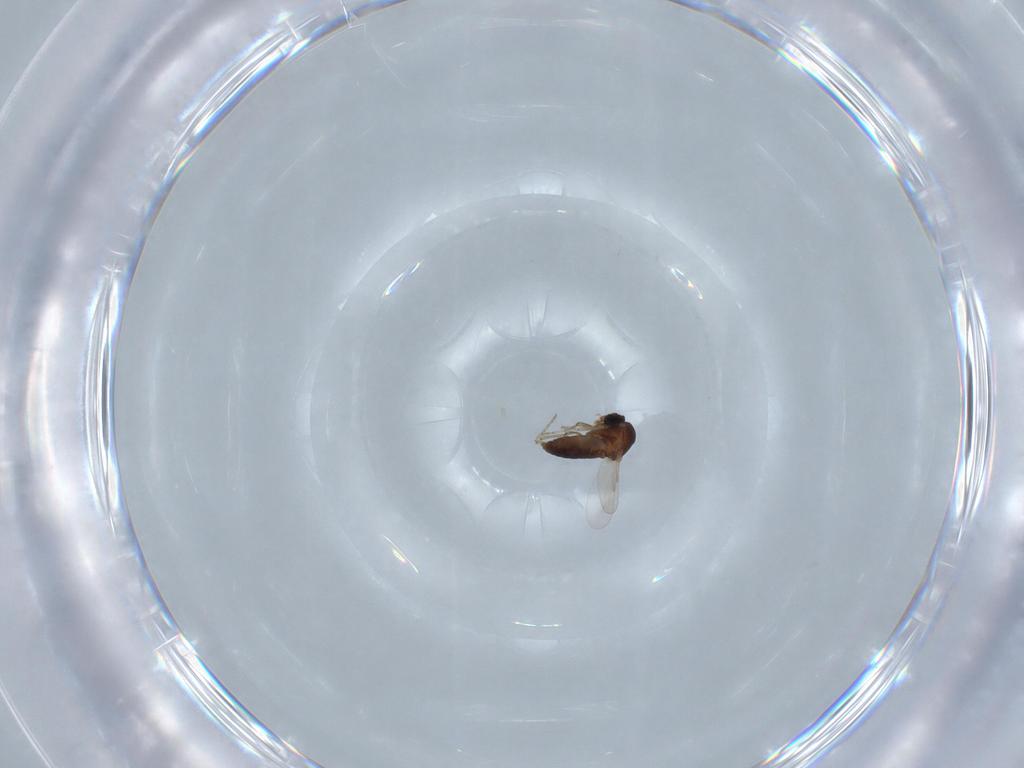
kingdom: Animalia
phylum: Arthropoda
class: Insecta
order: Diptera
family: Ceratopogonidae
